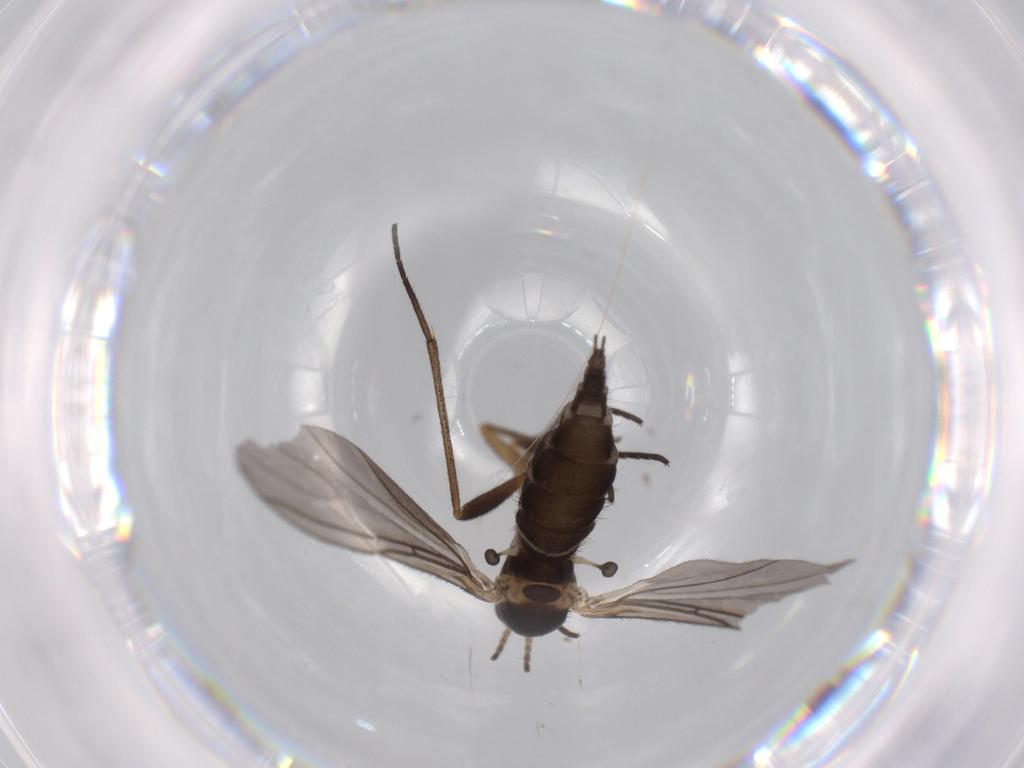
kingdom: Animalia
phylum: Arthropoda
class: Insecta
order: Diptera
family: Sciaridae
